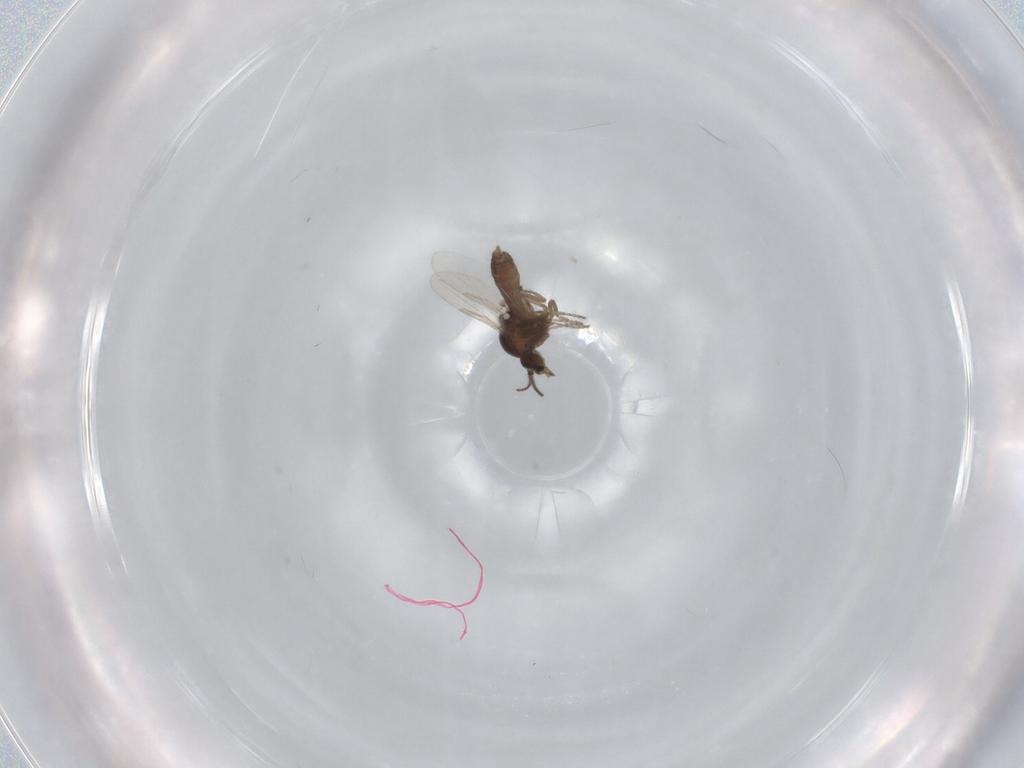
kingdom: Animalia
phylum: Arthropoda
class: Insecta
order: Diptera
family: Ceratopogonidae
